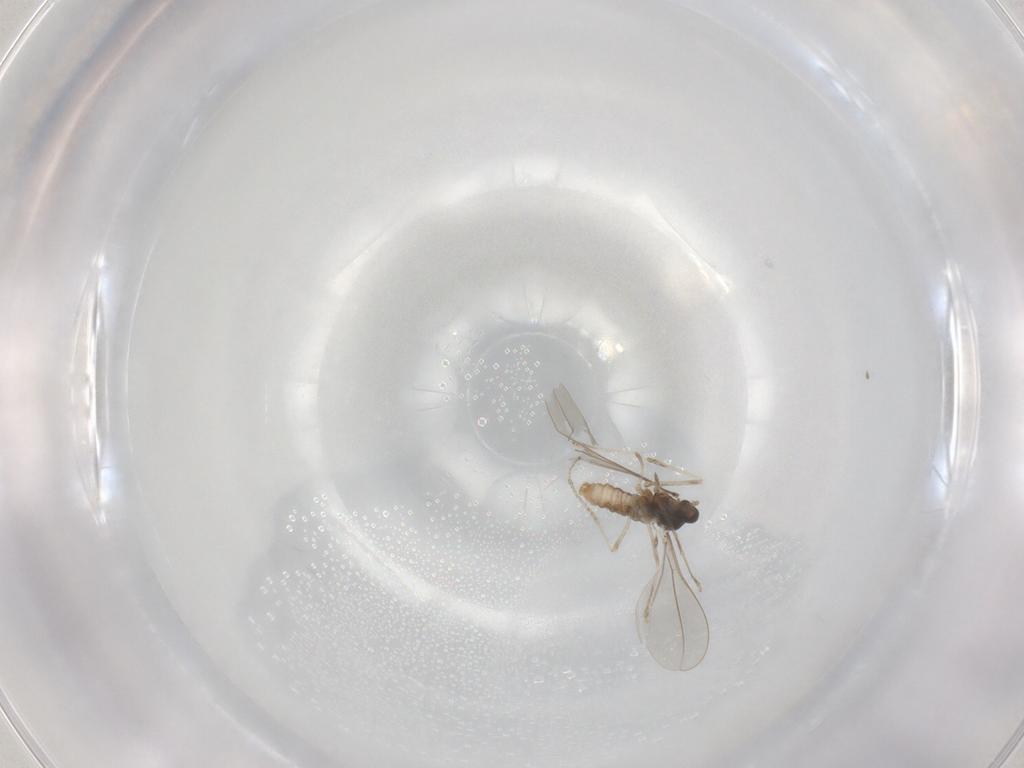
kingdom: Animalia
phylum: Arthropoda
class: Insecta
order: Diptera
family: Cecidomyiidae
